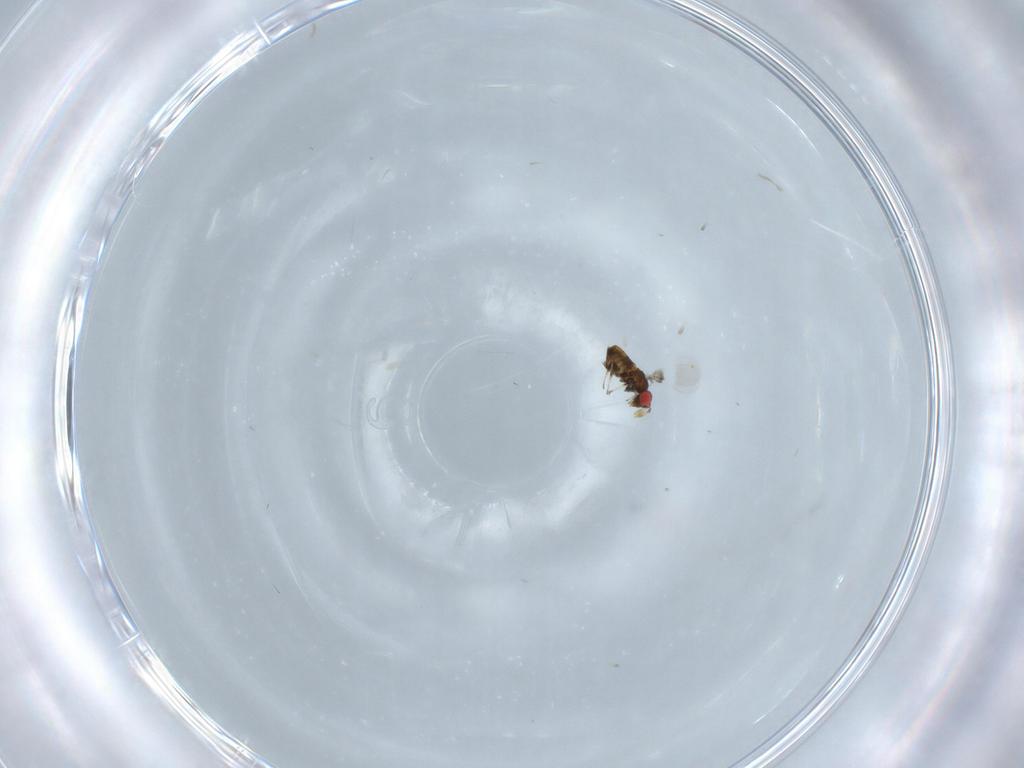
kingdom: Animalia
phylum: Arthropoda
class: Insecta
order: Hymenoptera
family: Trichogrammatidae
